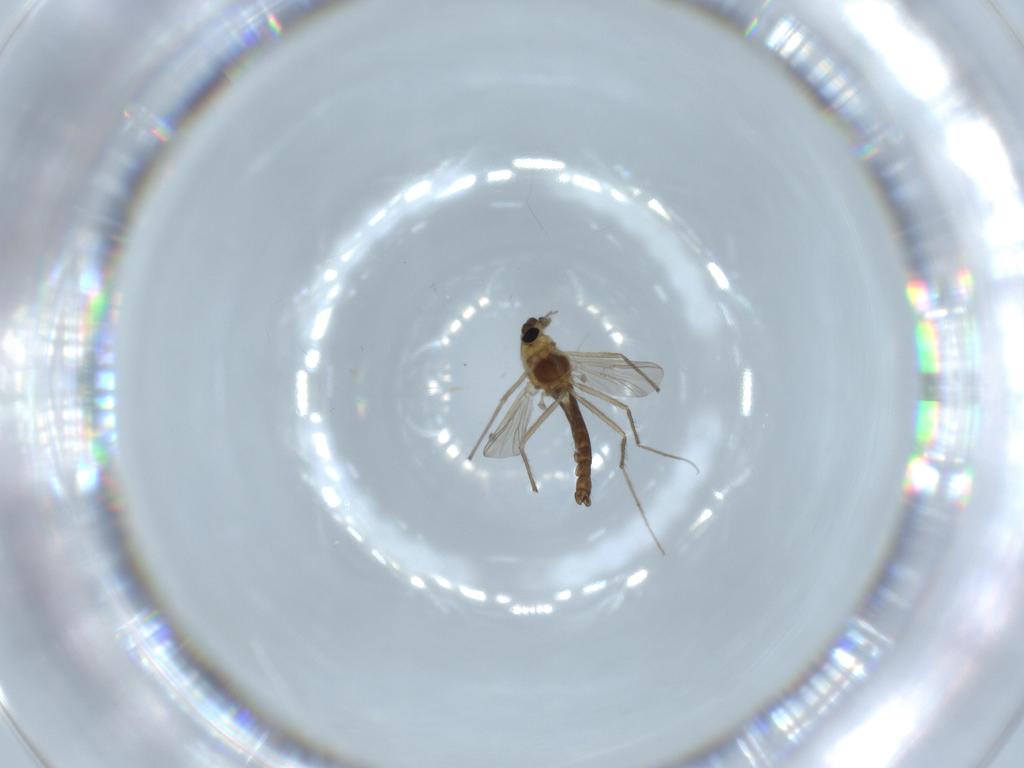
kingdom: Animalia
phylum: Arthropoda
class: Insecta
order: Diptera
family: Chironomidae
